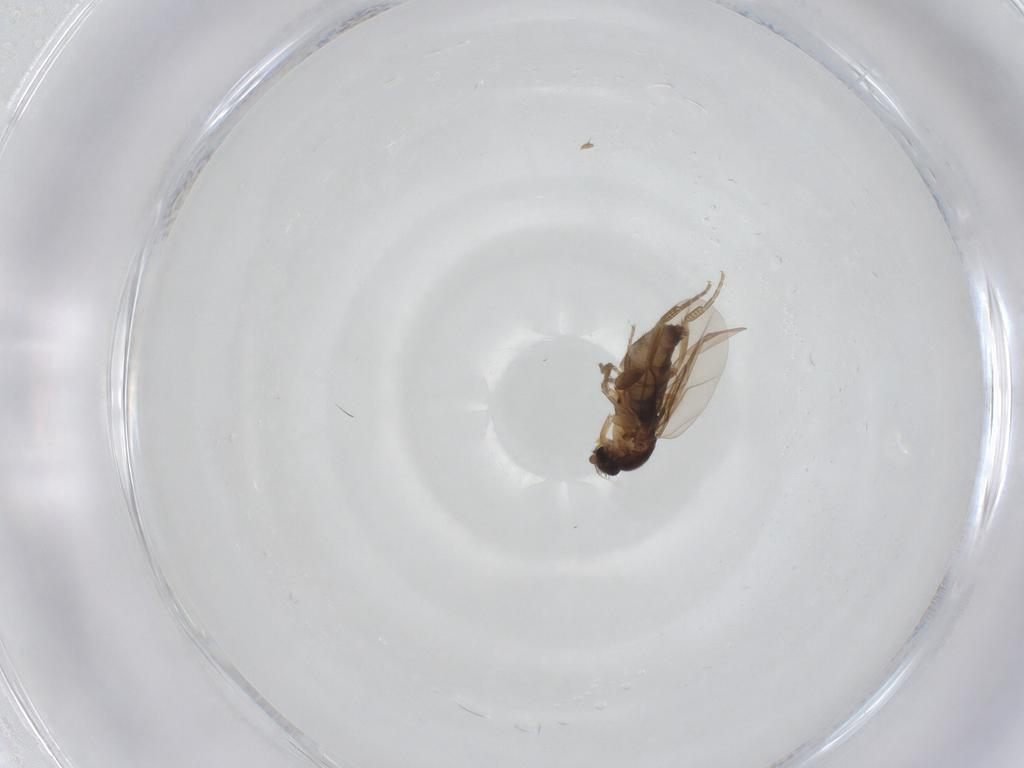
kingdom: Animalia
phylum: Arthropoda
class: Insecta
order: Diptera
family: Phoridae
